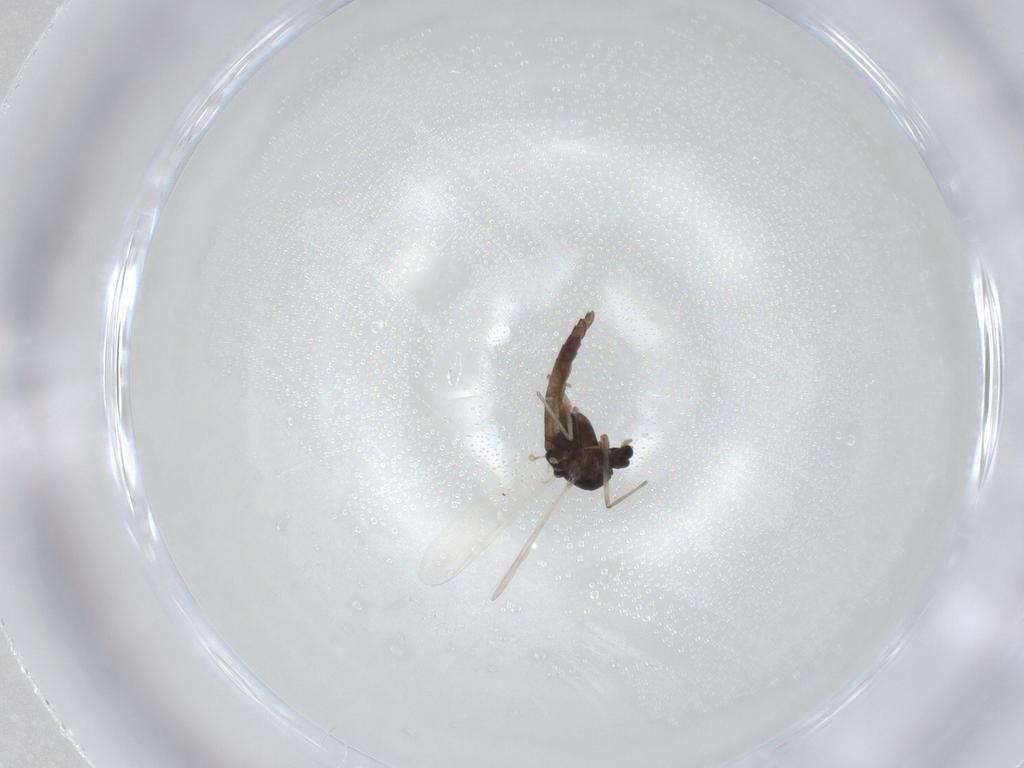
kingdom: Animalia
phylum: Arthropoda
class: Insecta
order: Diptera
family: Chironomidae
